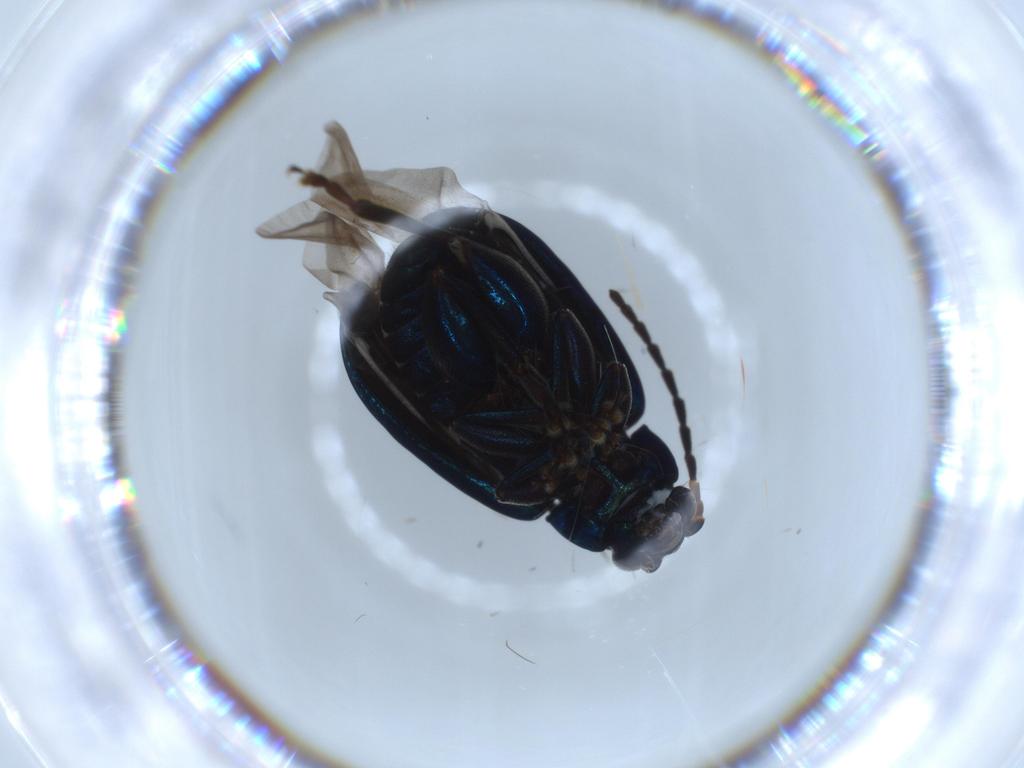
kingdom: Animalia
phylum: Arthropoda
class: Insecta
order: Coleoptera
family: Chrysomelidae
